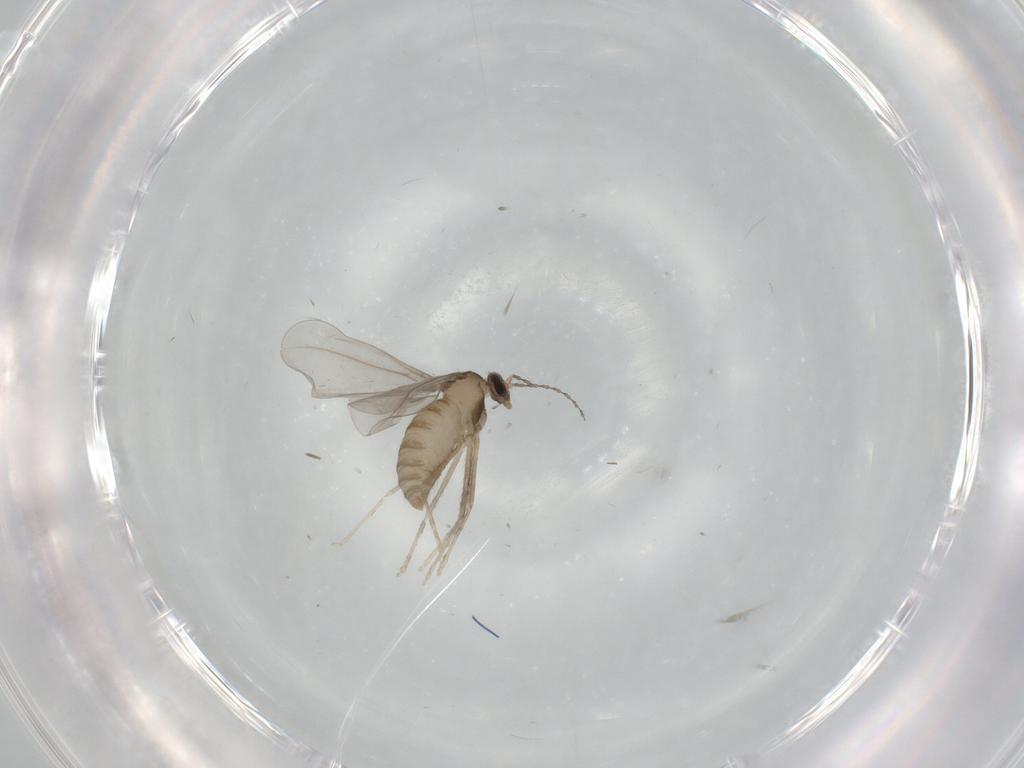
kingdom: Animalia
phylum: Arthropoda
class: Insecta
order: Diptera
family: Cecidomyiidae
